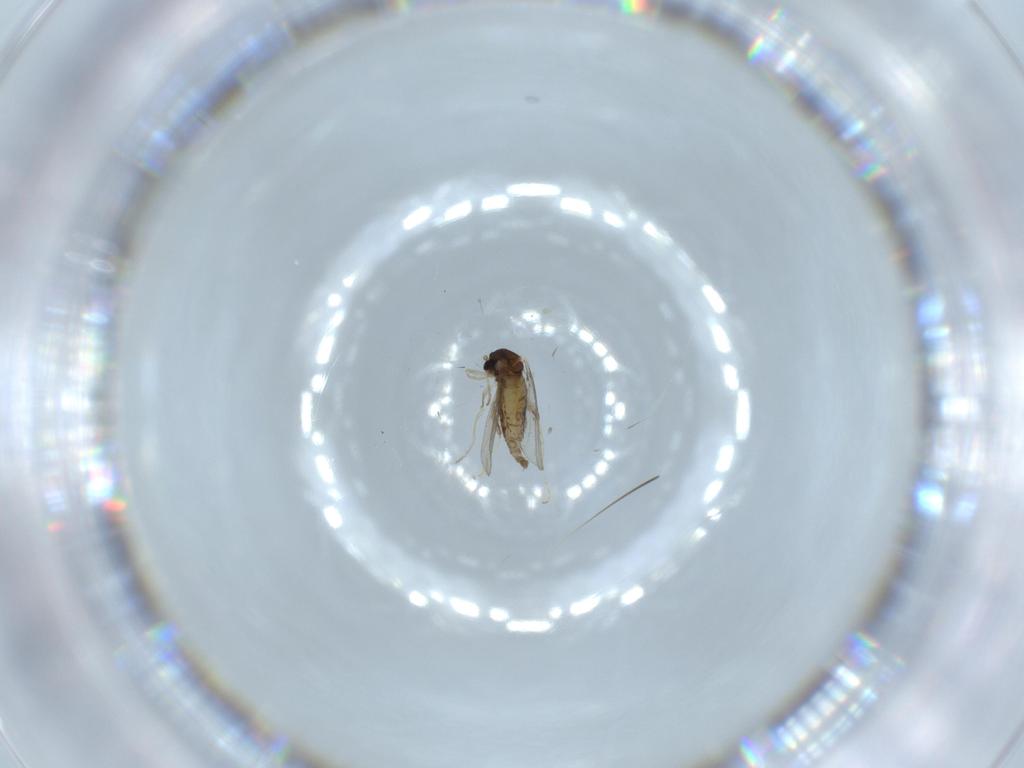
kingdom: Animalia
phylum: Arthropoda
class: Insecta
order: Diptera
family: Cecidomyiidae
